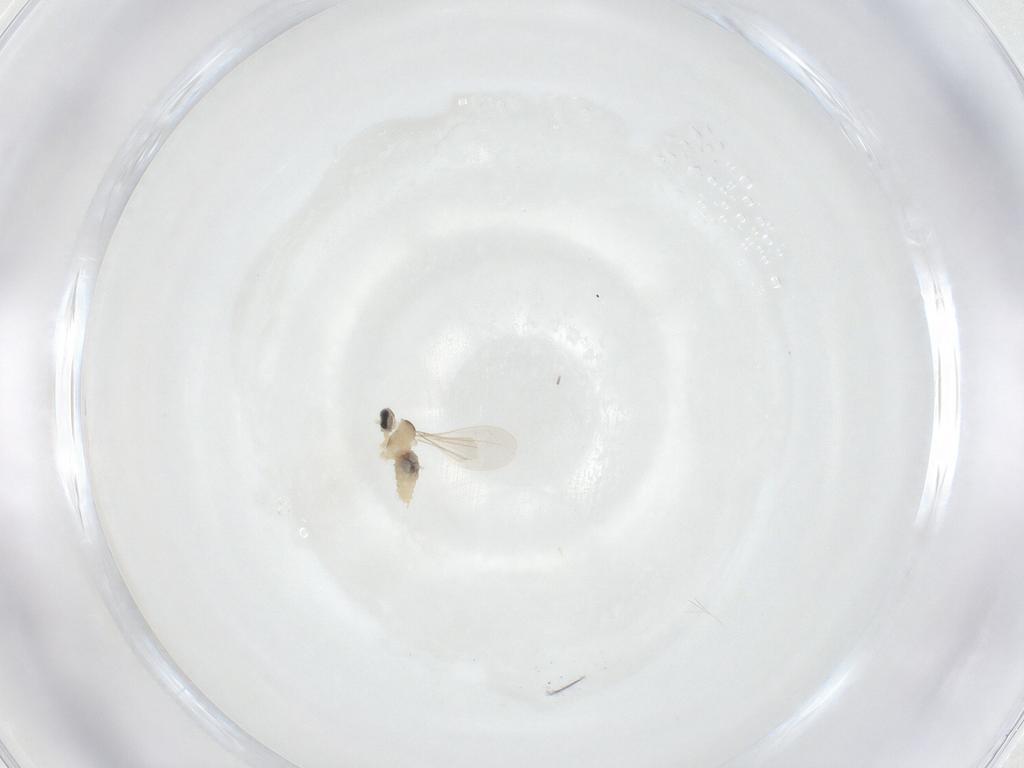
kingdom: Animalia
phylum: Arthropoda
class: Insecta
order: Diptera
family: Cecidomyiidae
